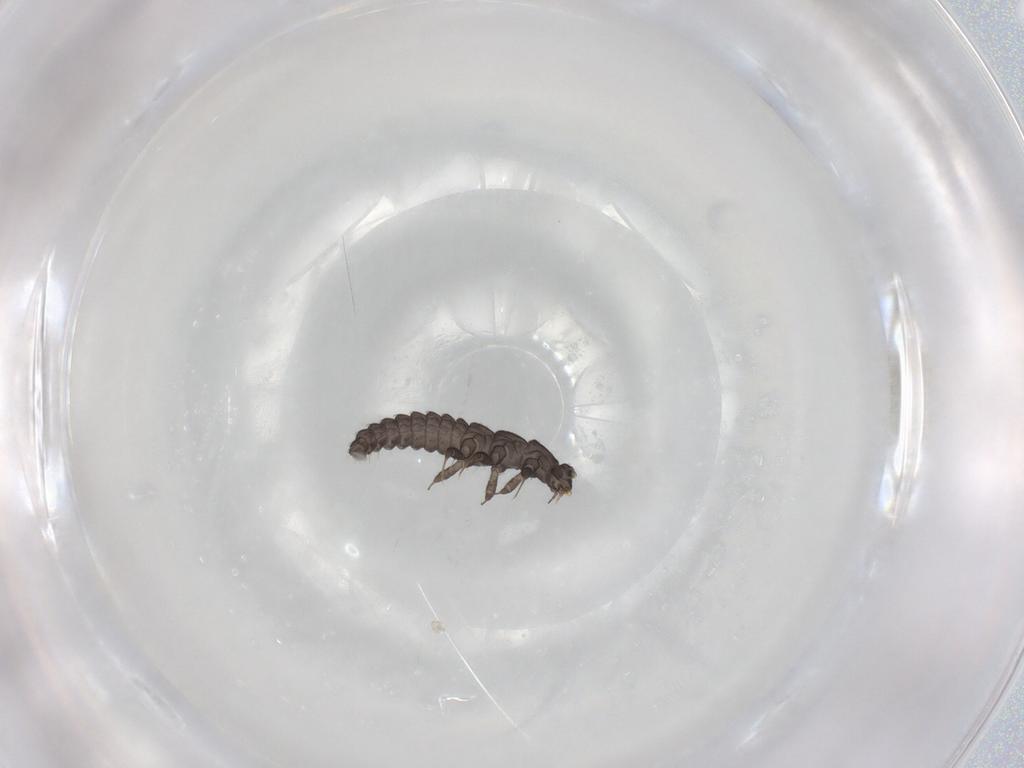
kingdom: Animalia
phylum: Arthropoda
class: Insecta
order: Coleoptera
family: Lycidae
